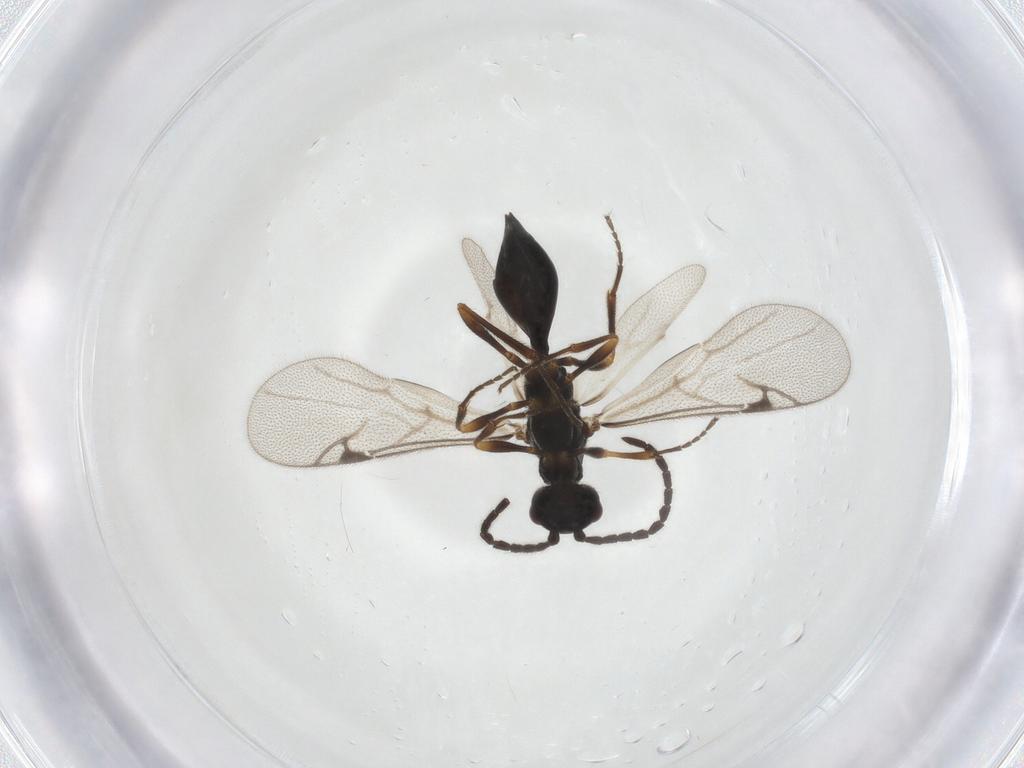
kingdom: Animalia
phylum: Arthropoda
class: Insecta
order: Hymenoptera
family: Proctotrupidae
